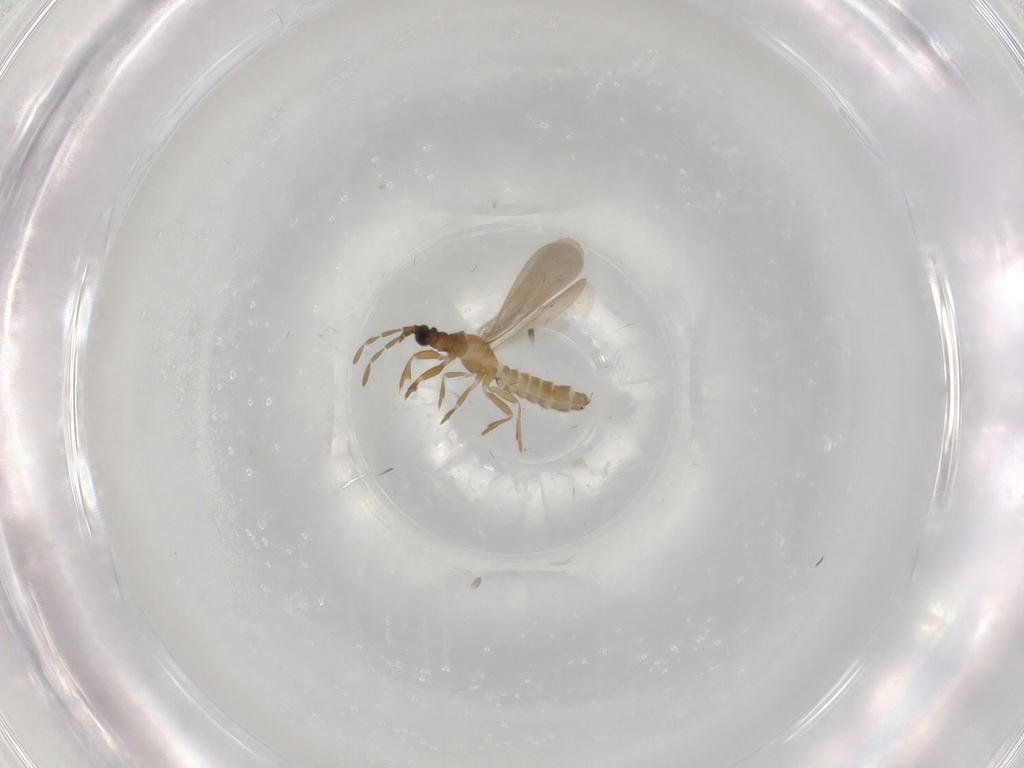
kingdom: Animalia
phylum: Arthropoda
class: Insecta
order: Hemiptera
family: Enicocephalidae
